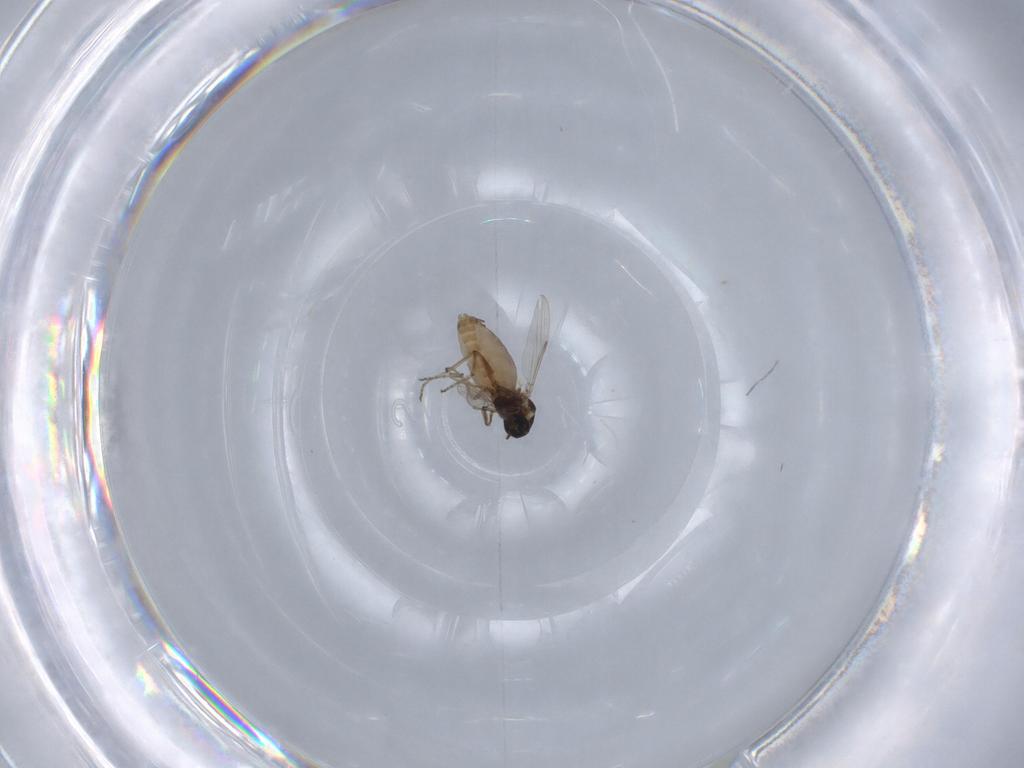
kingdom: Animalia
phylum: Arthropoda
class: Insecta
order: Diptera
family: Ceratopogonidae
